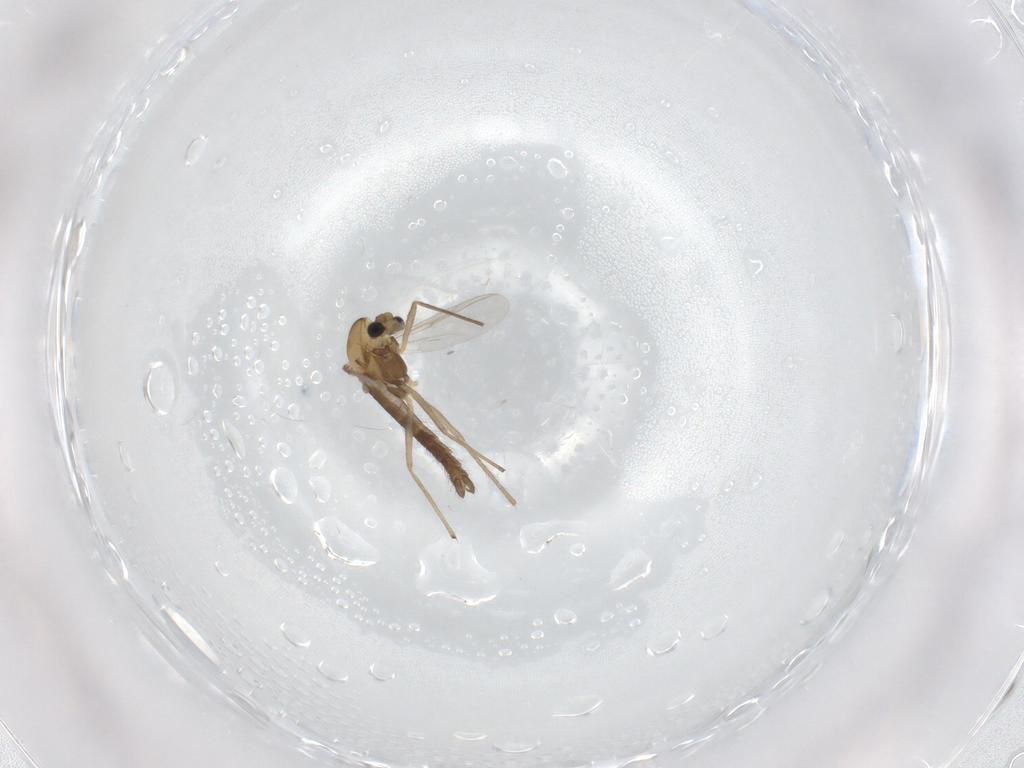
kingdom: Animalia
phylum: Arthropoda
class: Insecta
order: Diptera
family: Chironomidae
